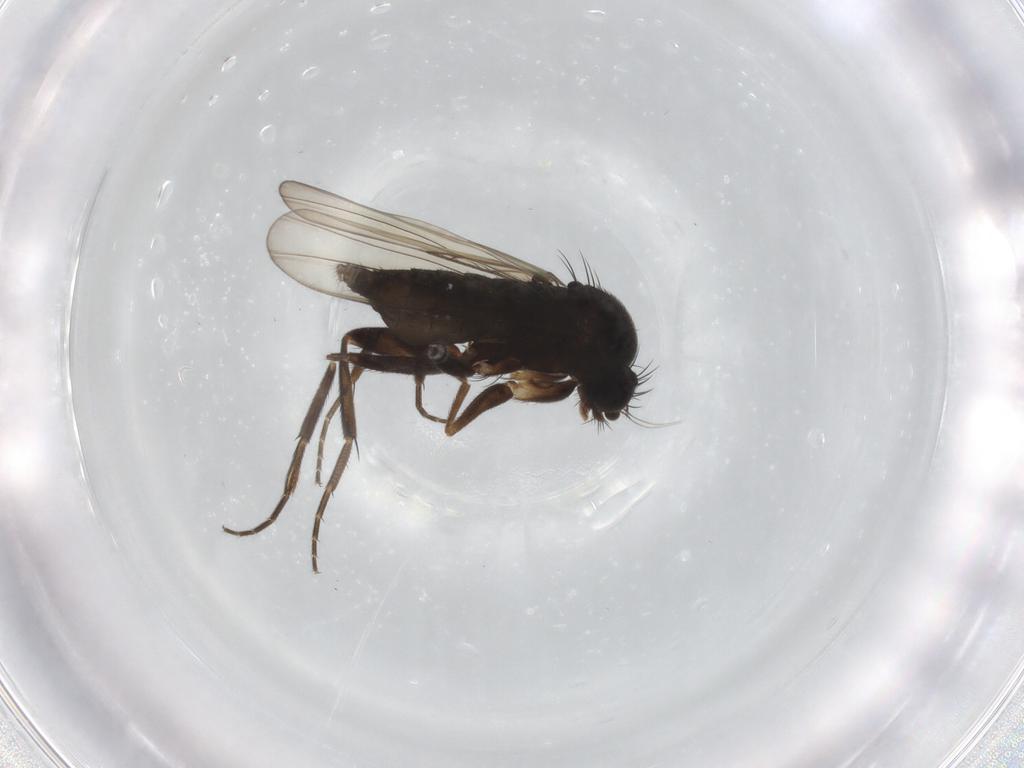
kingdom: Animalia
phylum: Arthropoda
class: Insecta
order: Diptera
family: Phoridae
